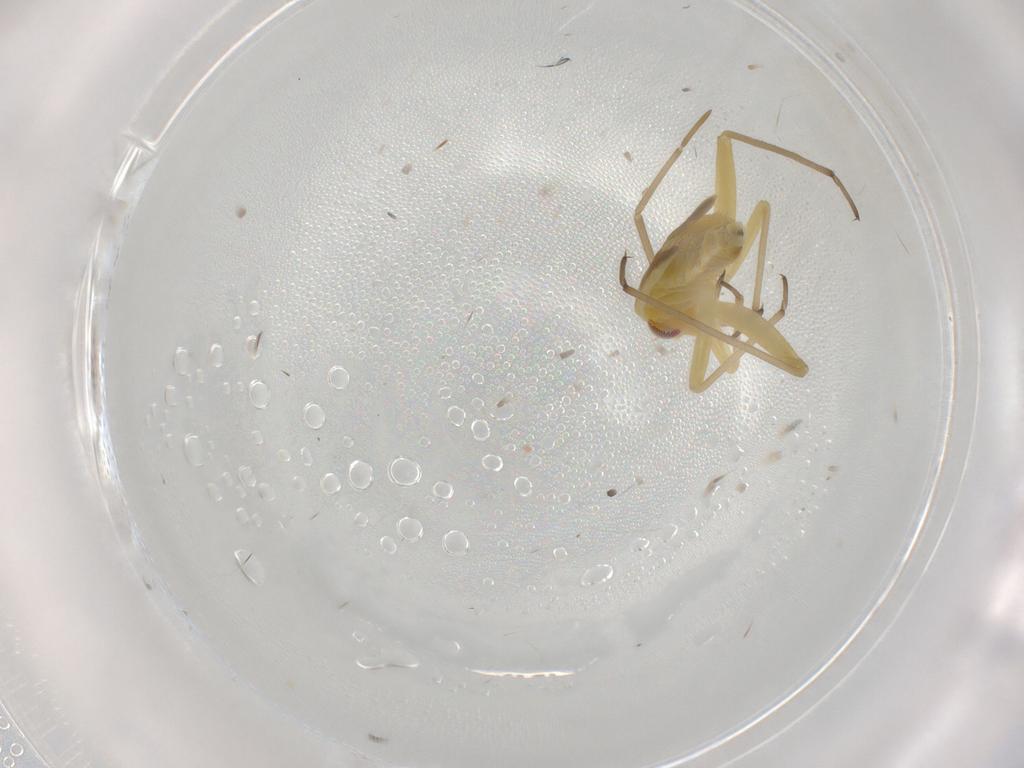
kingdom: Animalia
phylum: Arthropoda
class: Insecta
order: Hemiptera
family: Miridae
